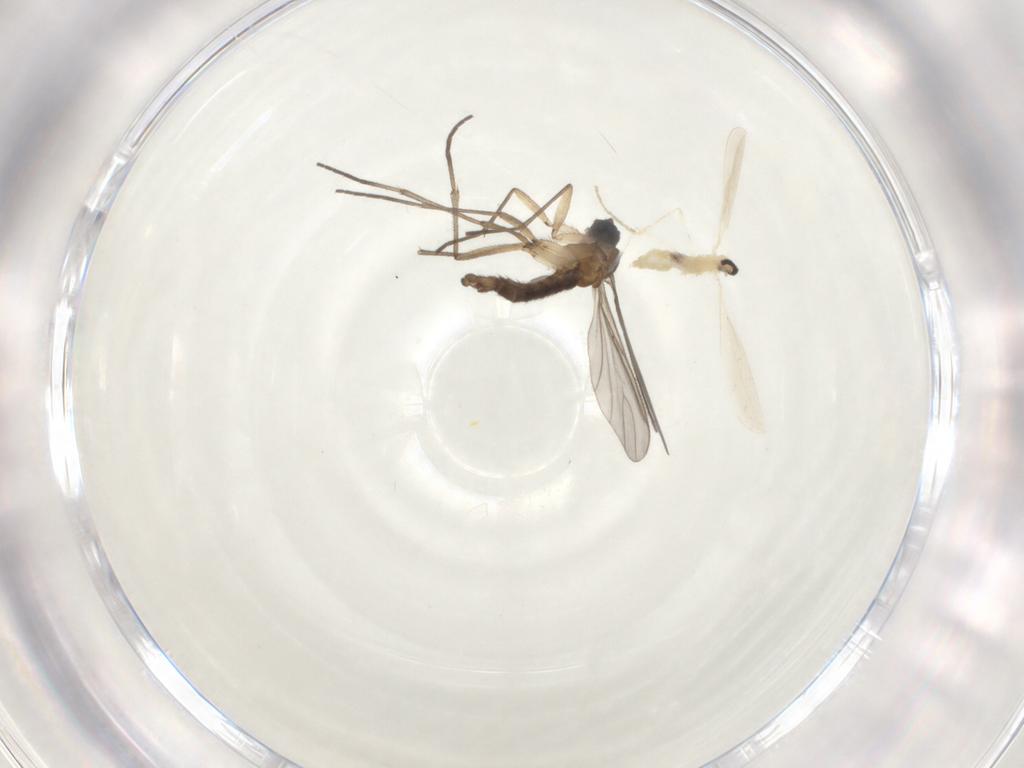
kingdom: Animalia
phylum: Arthropoda
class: Insecta
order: Diptera
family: Sciaridae
